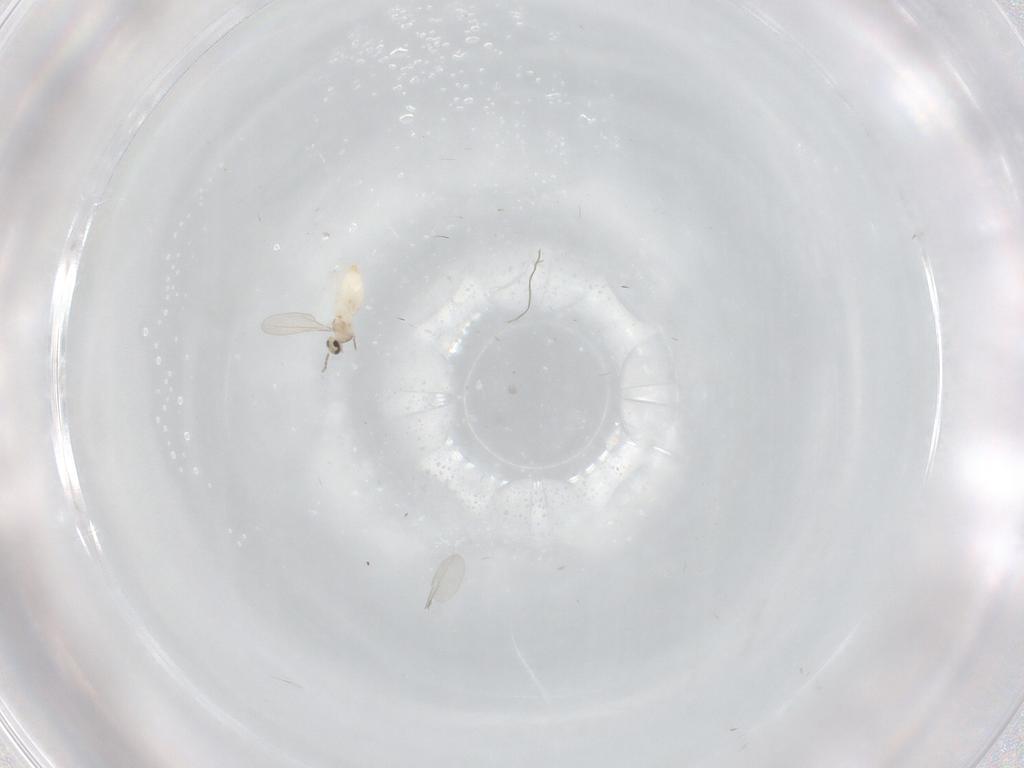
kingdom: Animalia
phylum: Arthropoda
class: Insecta
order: Diptera
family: Cecidomyiidae
